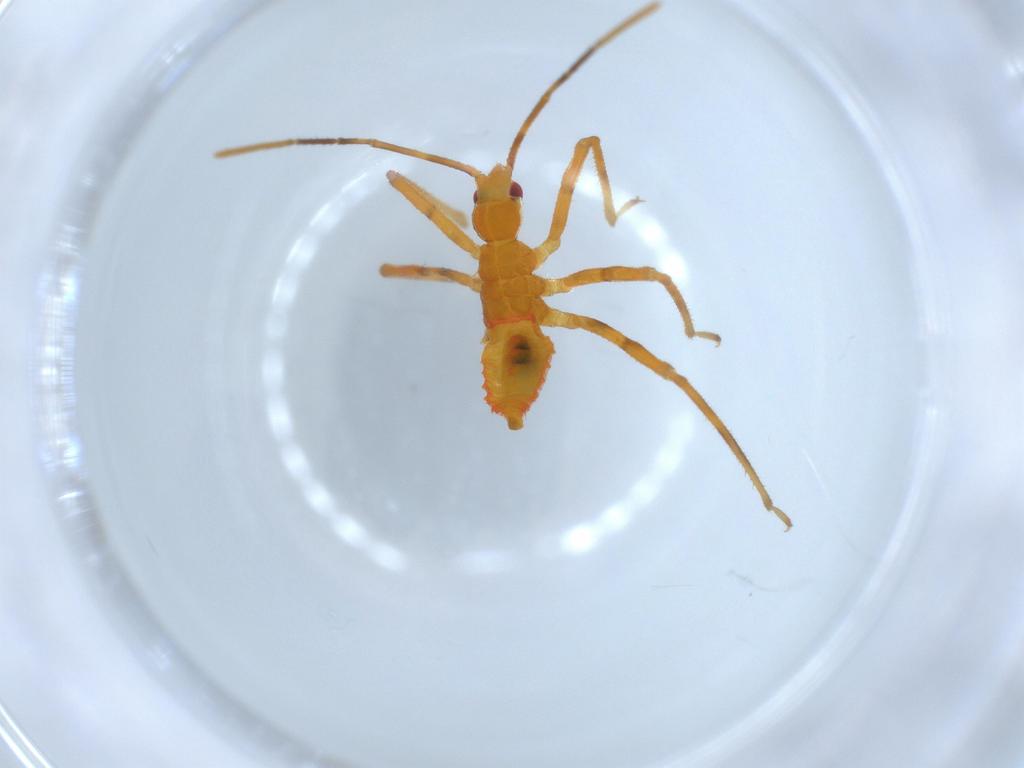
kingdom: Animalia
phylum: Arthropoda
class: Insecta
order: Hemiptera
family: Reduviidae
